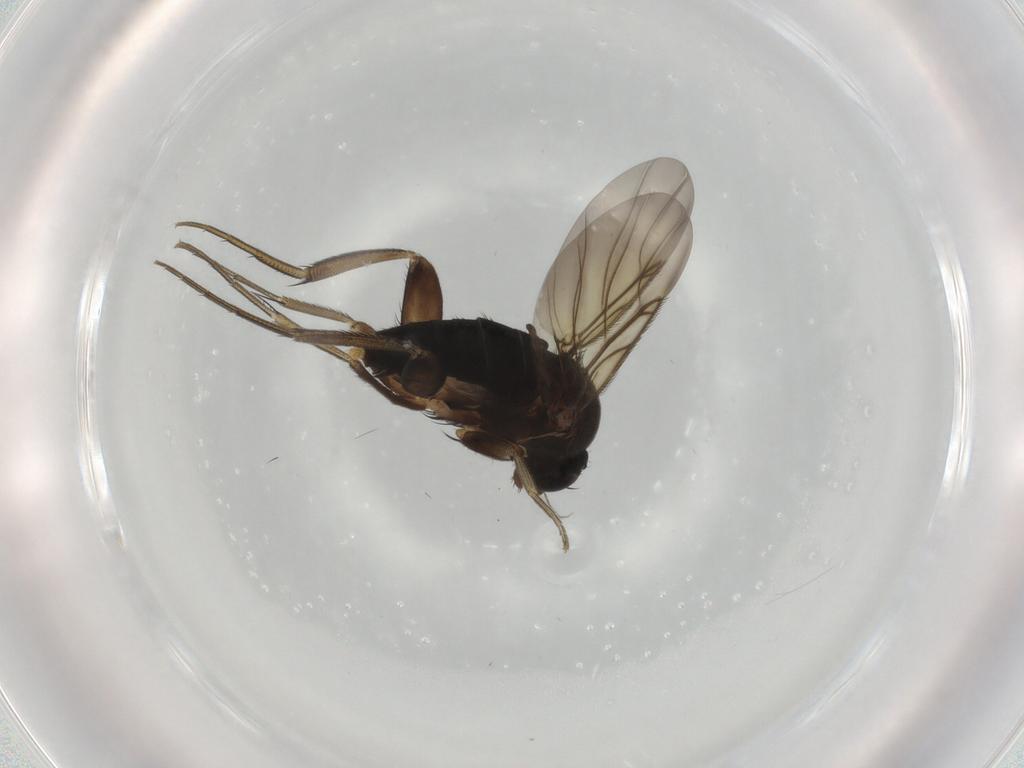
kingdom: Animalia
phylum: Arthropoda
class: Insecta
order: Diptera
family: Phoridae
